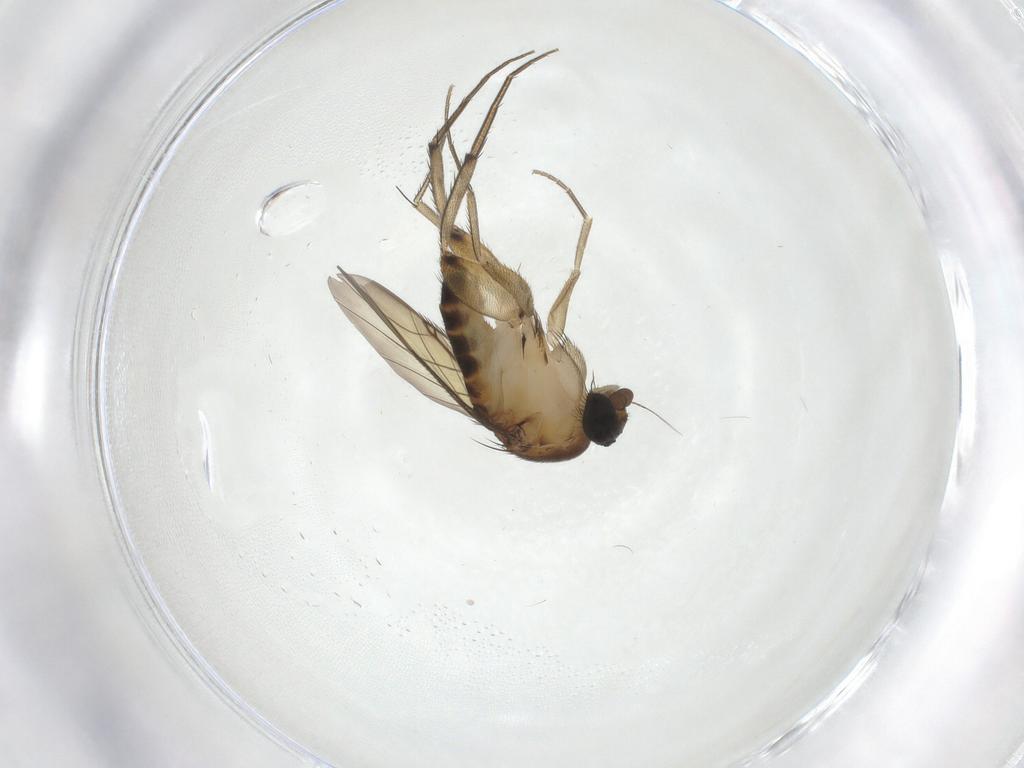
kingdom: Animalia
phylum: Arthropoda
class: Insecta
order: Diptera
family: Phoridae
